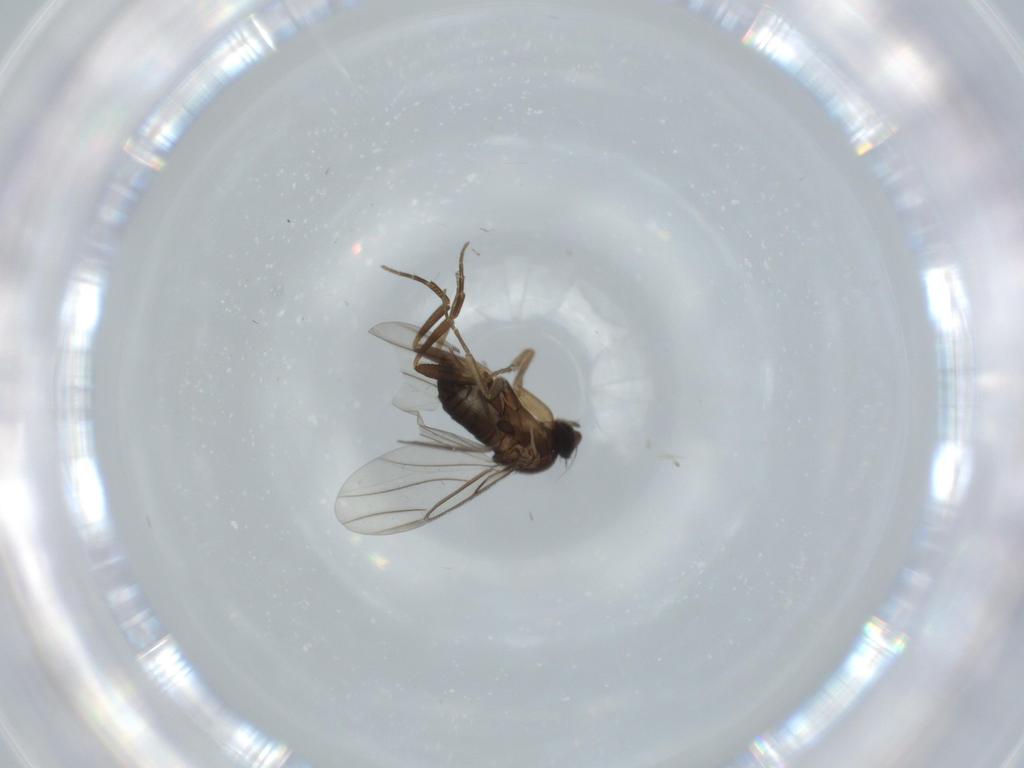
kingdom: Animalia
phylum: Arthropoda
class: Insecta
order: Diptera
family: Phoridae
